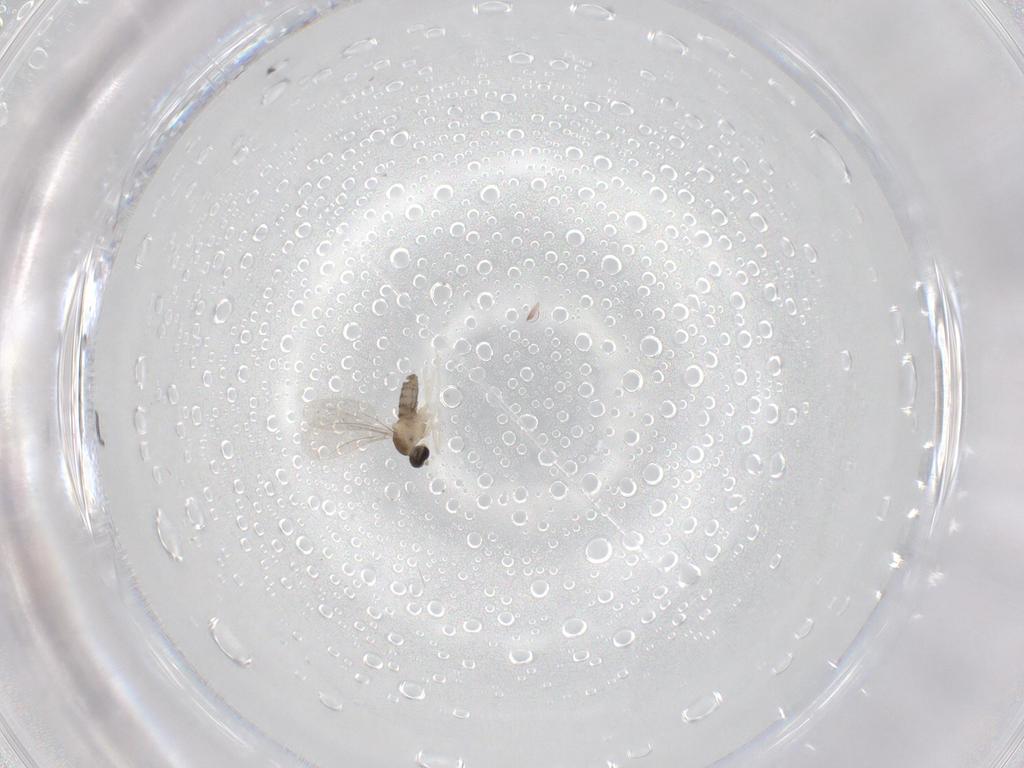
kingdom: Animalia
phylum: Arthropoda
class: Insecta
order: Diptera
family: Cecidomyiidae
